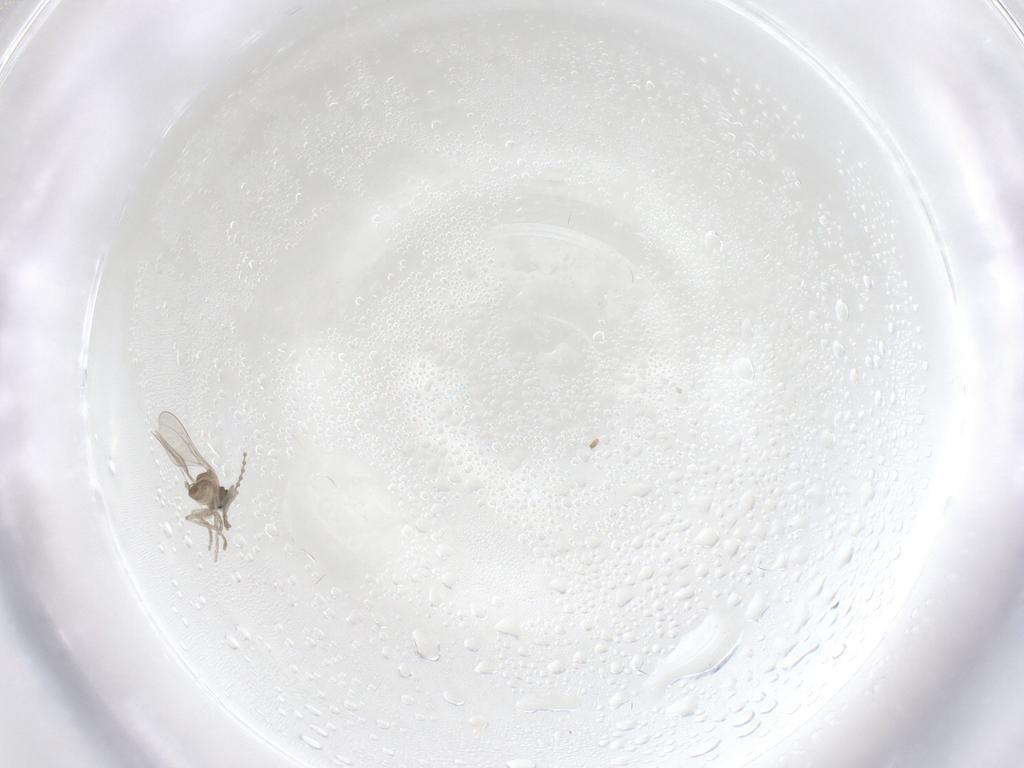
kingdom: Animalia
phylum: Arthropoda
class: Insecta
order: Diptera
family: Cecidomyiidae
